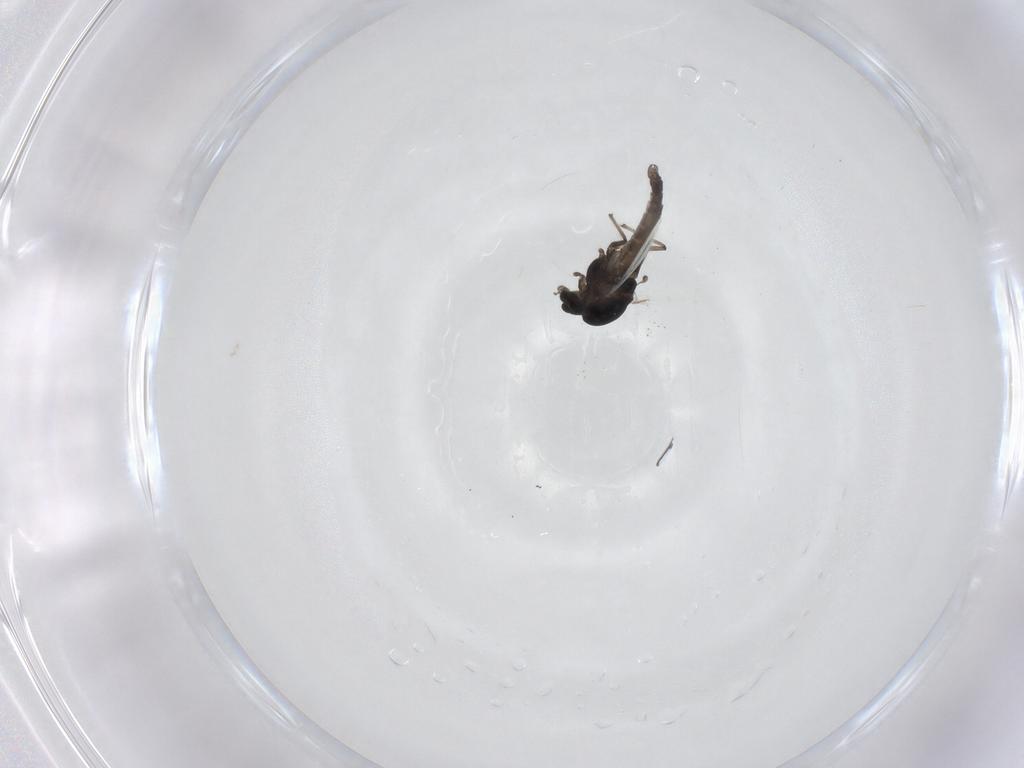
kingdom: Animalia
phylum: Arthropoda
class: Insecta
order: Diptera
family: Chironomidae
